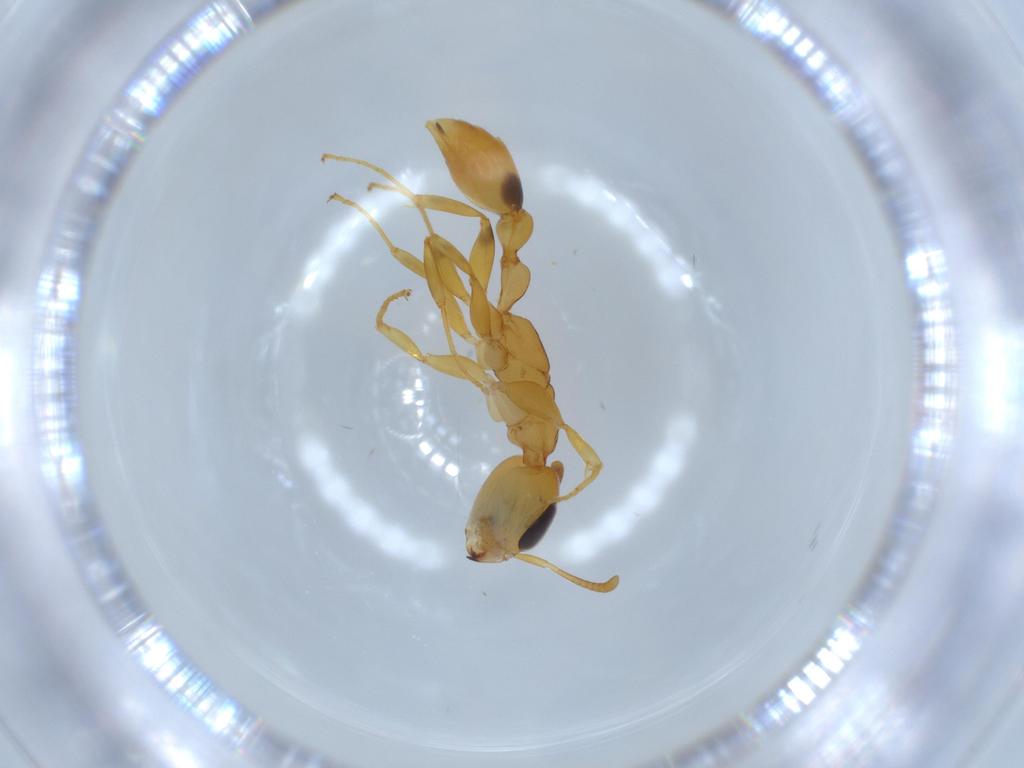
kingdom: Animalia
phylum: Arthropoda
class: Insecta
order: Hymenoptera
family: Formicidae
